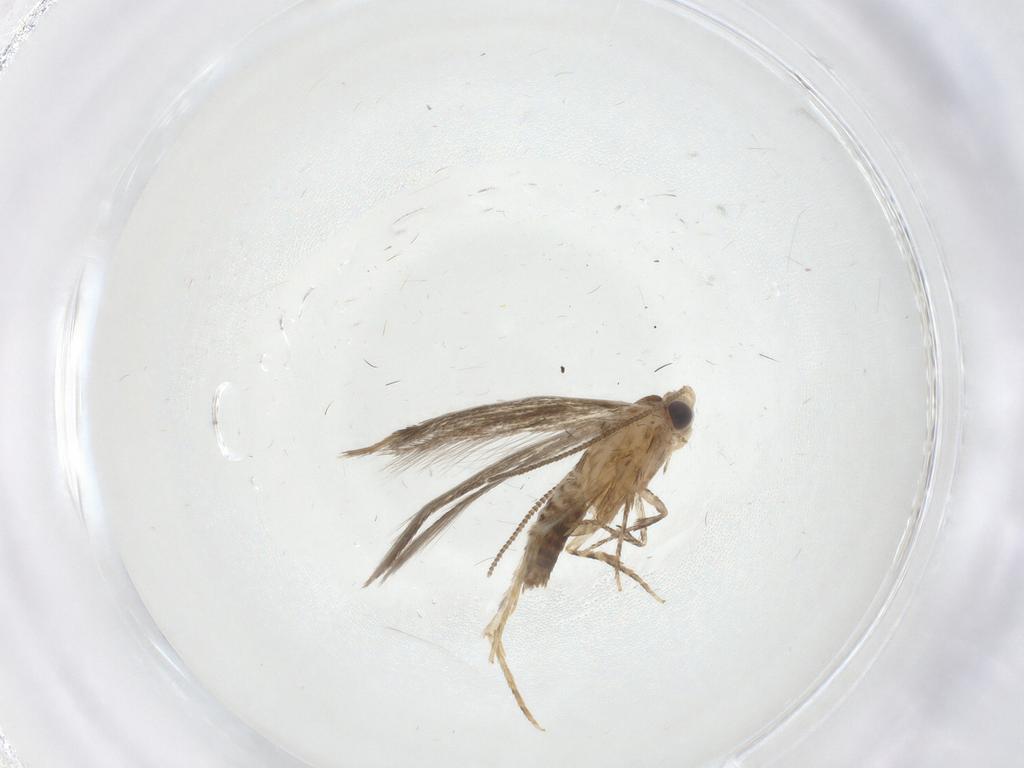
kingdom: Animalia
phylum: Arthropoda
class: Insecta
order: Lepidoptera
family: Tineidae
